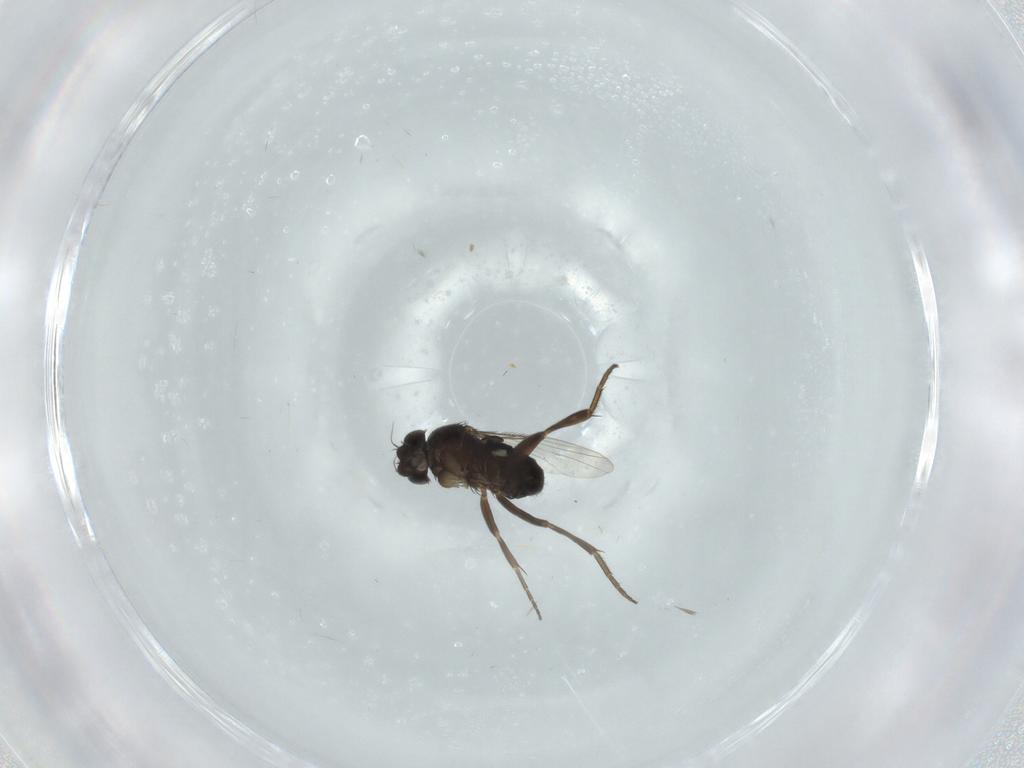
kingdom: Animalia
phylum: Arthropoda
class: Insecta
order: Diptera
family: Phoridae
